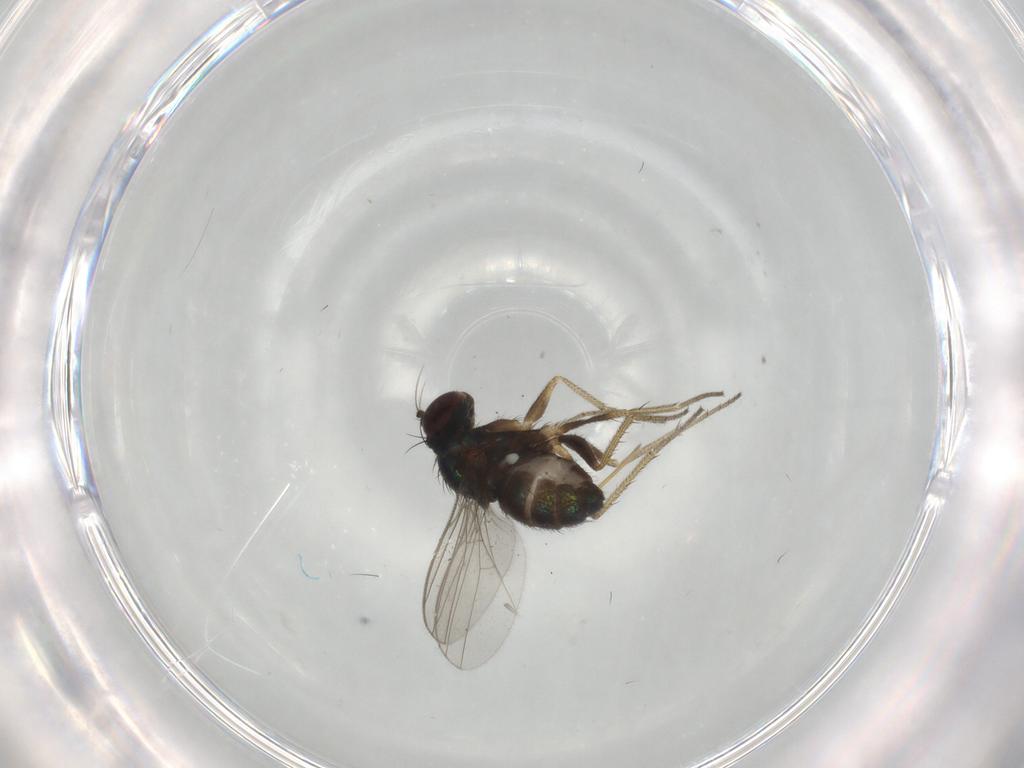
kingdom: Animalia
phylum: Arthropoda
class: Insecta
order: Diptera
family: Dolichopodidae
